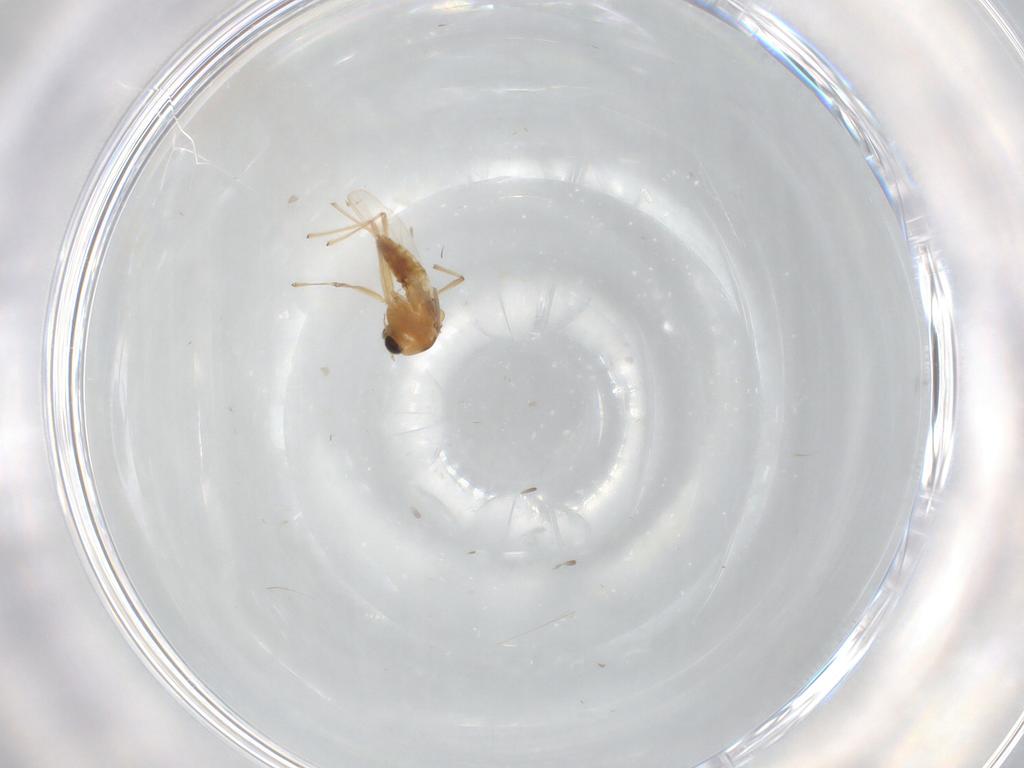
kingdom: Animalia
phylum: Arthropoda
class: Insecta
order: Diptera
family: Chironomidae
